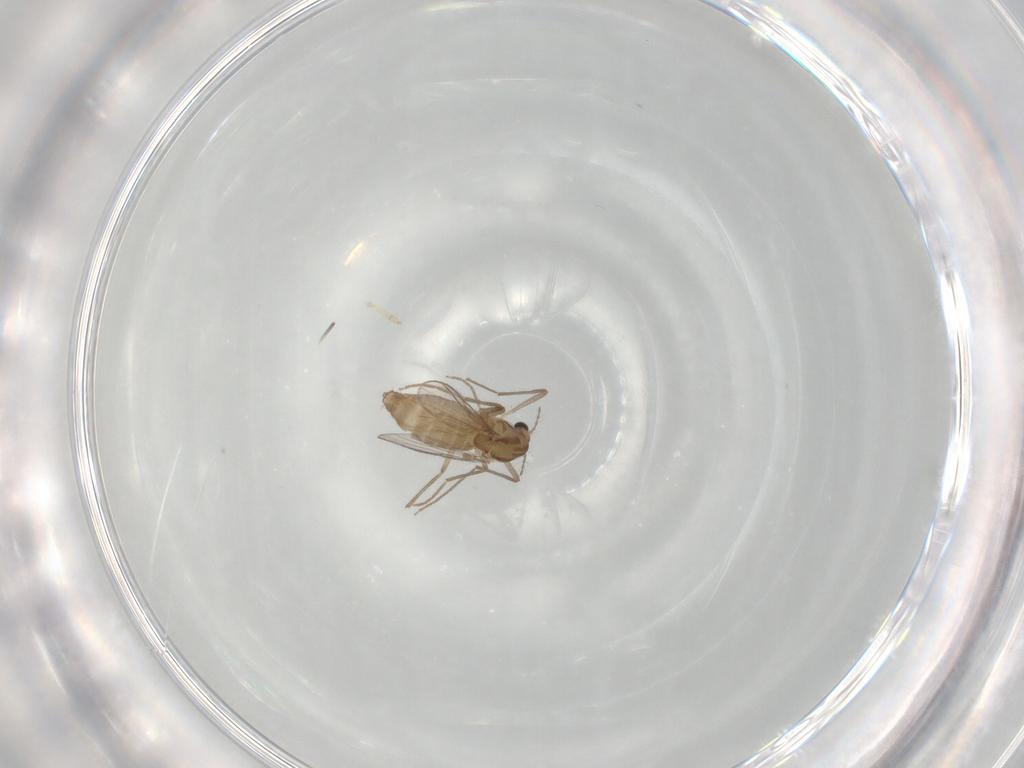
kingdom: Animalia
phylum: Arthropoda
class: Insecta
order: Diptera
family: Chironomidae
